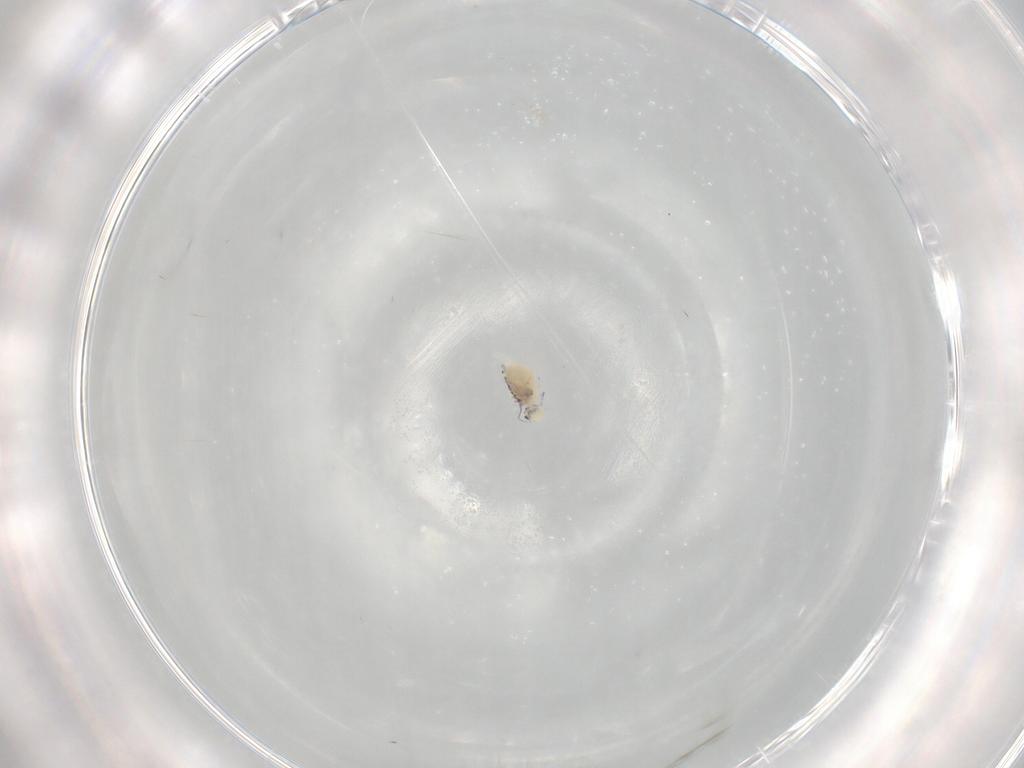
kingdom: Animalia
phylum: Arthropoda
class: Collembola
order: Symphypleona
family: Bourletiellidae
